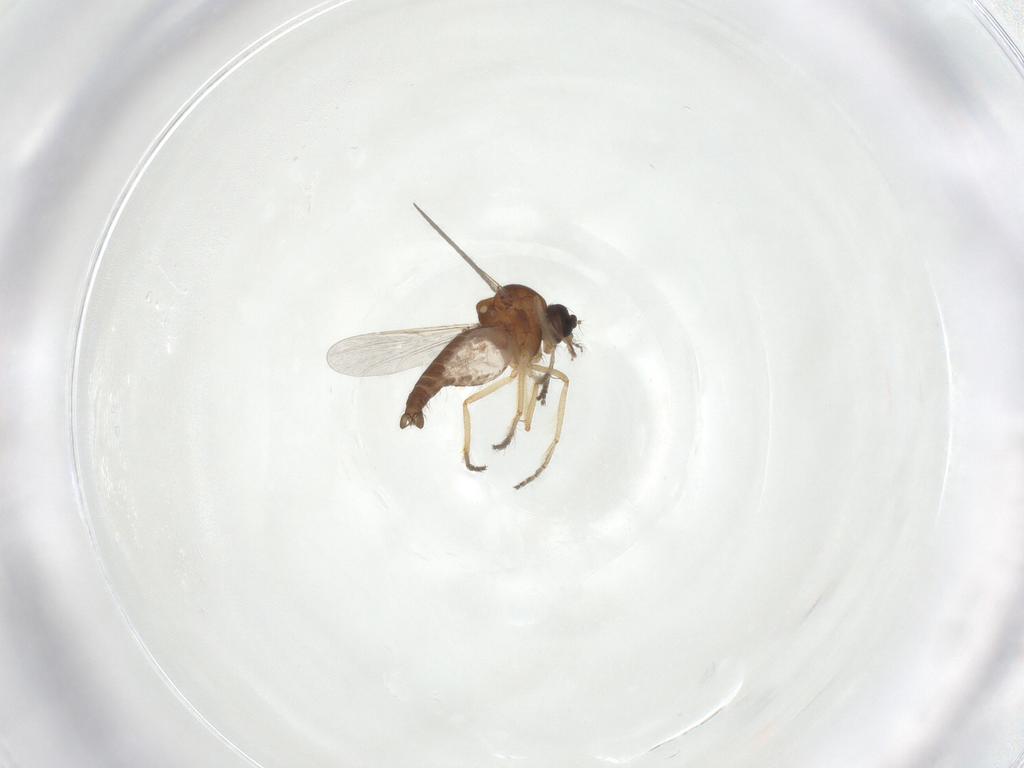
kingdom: Animalia
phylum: Arthropoda
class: Insecta
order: Diptera
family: Ceratopogonidae
